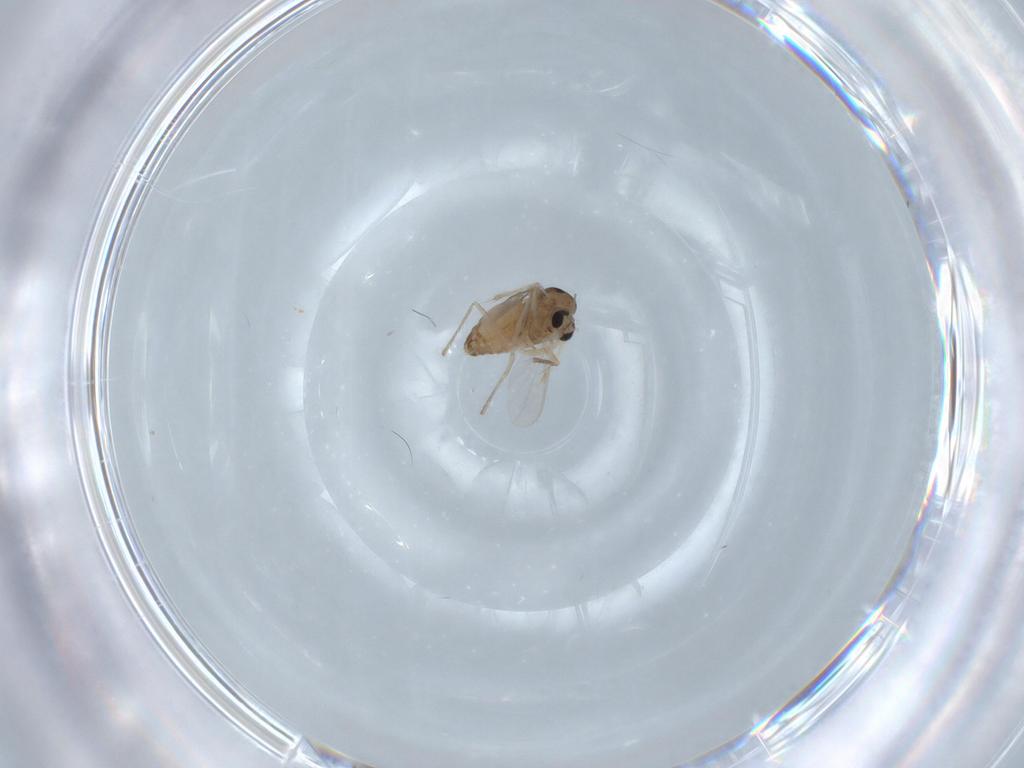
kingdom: Animalia
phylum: Arthropoda
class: Insecta
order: Diptera
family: Chironomidae
